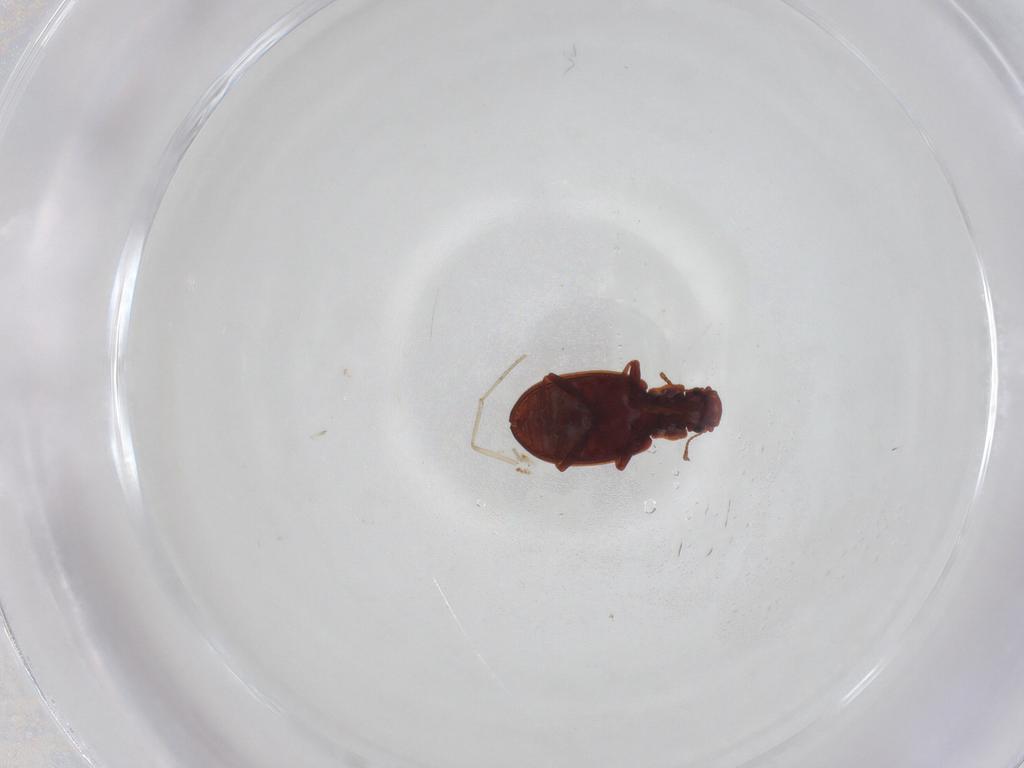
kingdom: Animalia
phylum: Arthropoda
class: Insecta
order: Coleoptera
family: Latridiidae
